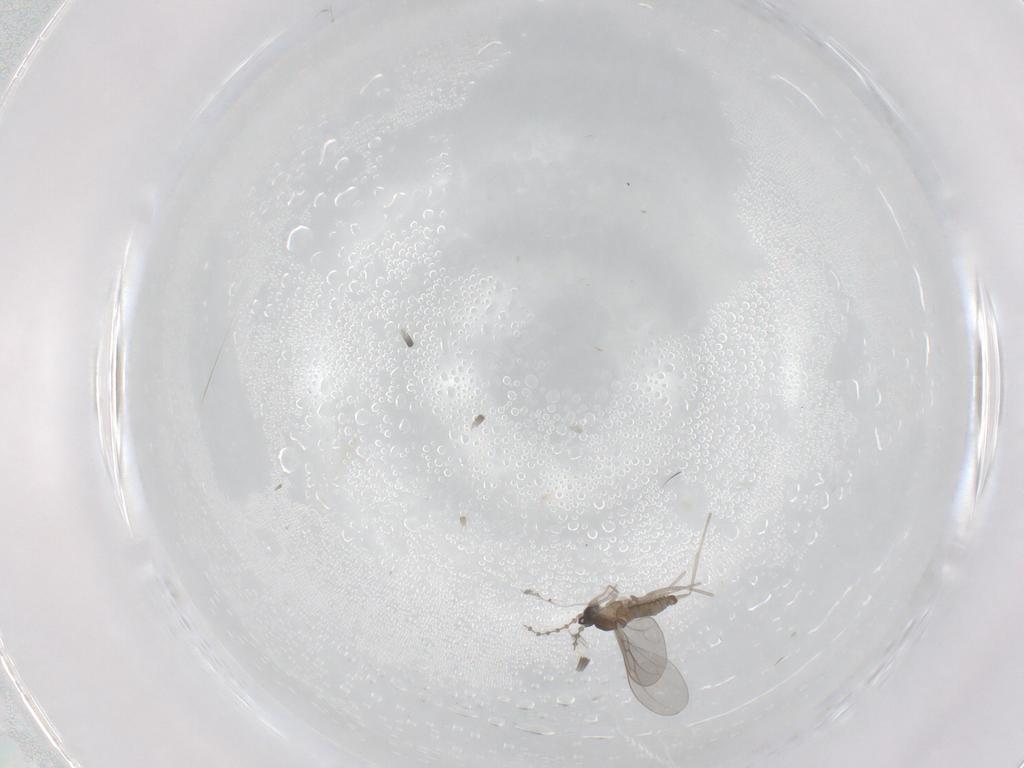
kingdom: Animalia
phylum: Arthropoda
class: Insecta
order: Diptera
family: Cecidomyiidae
